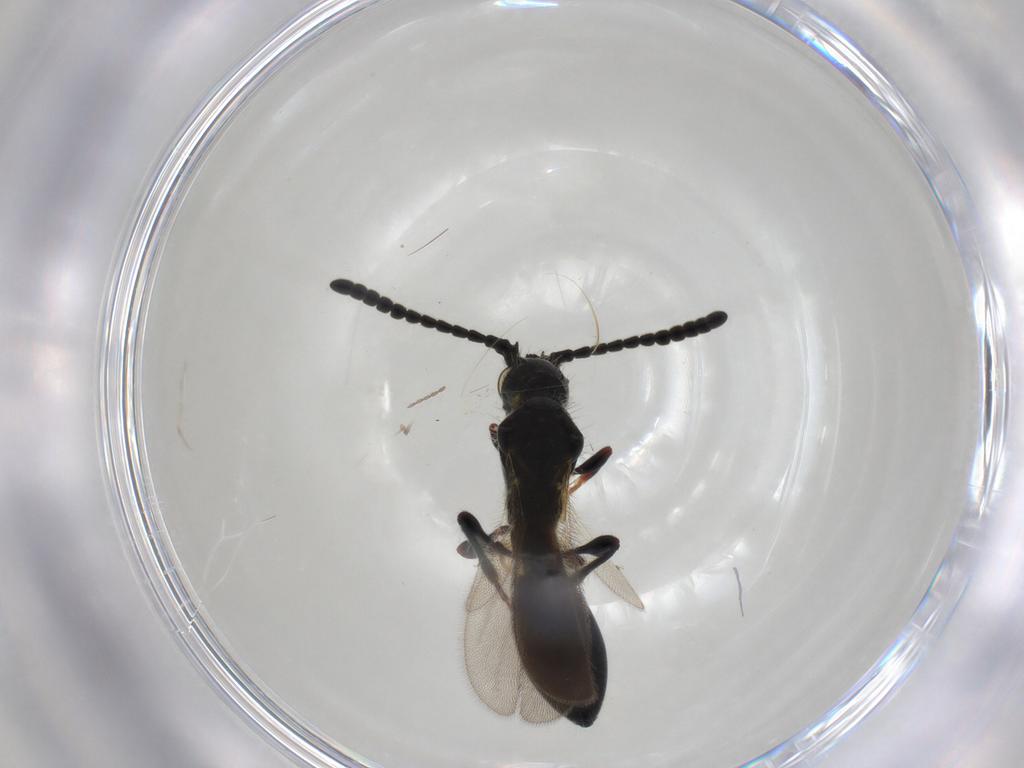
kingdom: Animalia
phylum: Arthropoda
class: Insecta
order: Hymenoptera
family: Diapriidae
